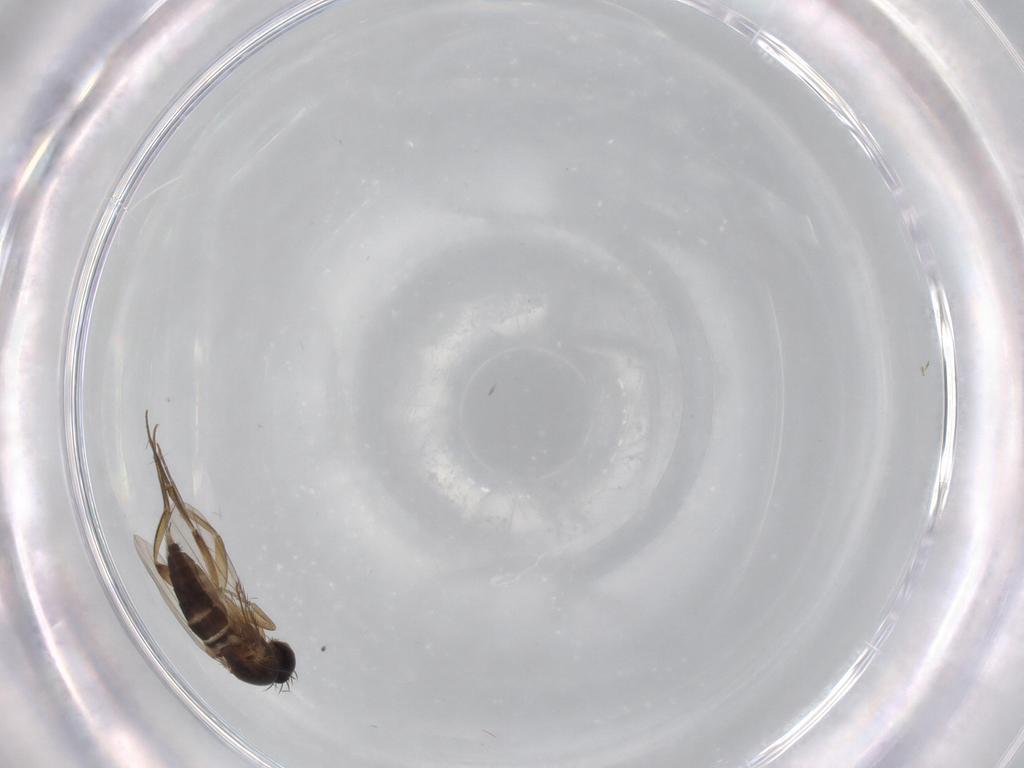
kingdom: Animalia
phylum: Arthropoda
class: Insecta
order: Diptera
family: Phoridae
